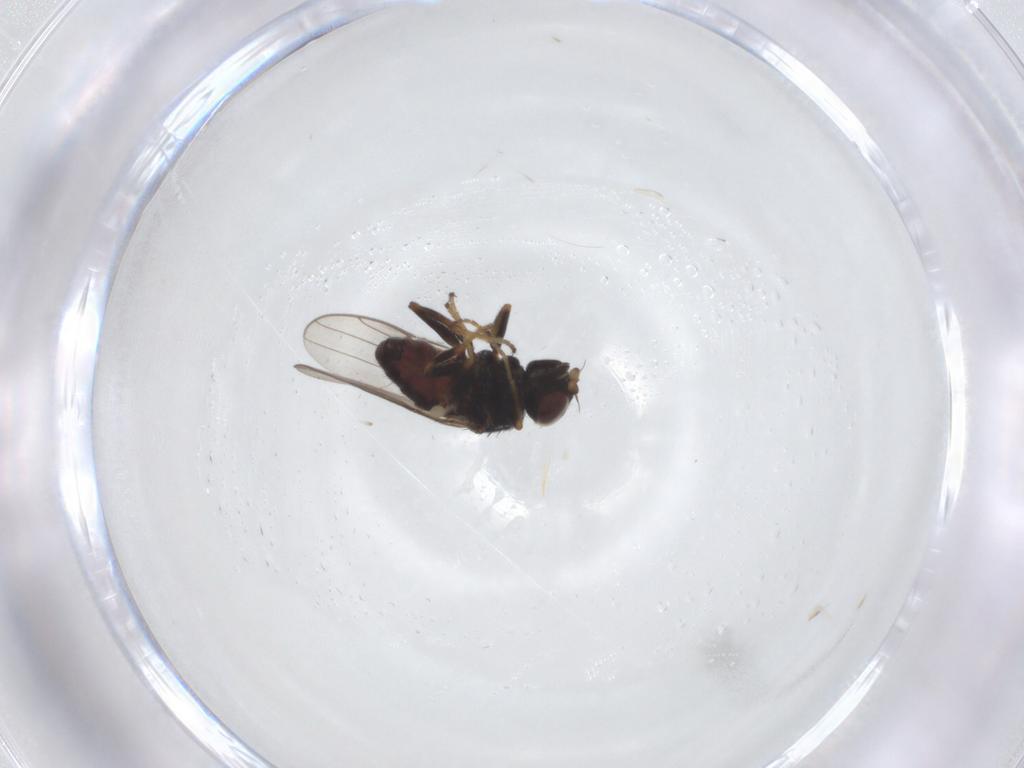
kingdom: Animalia
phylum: Arthropoda
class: Insecta
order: Diptera
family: Chloropidae
